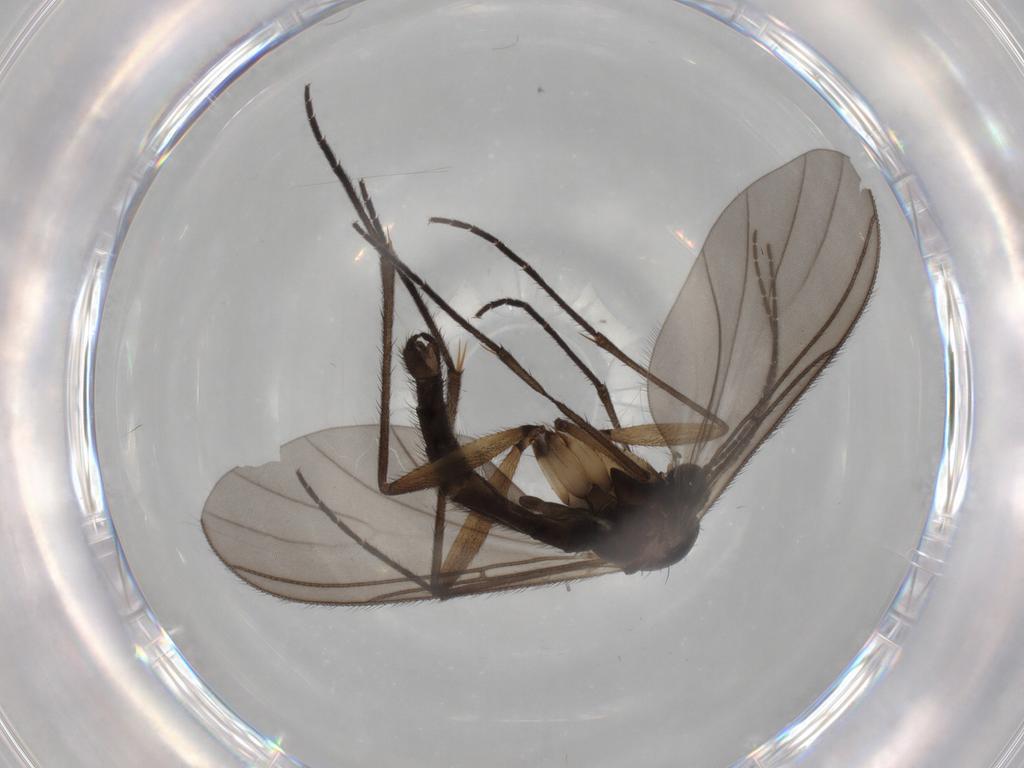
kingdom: Animalia
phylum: Arthropoda
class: Insecta
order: Diptera
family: Sciaridae
